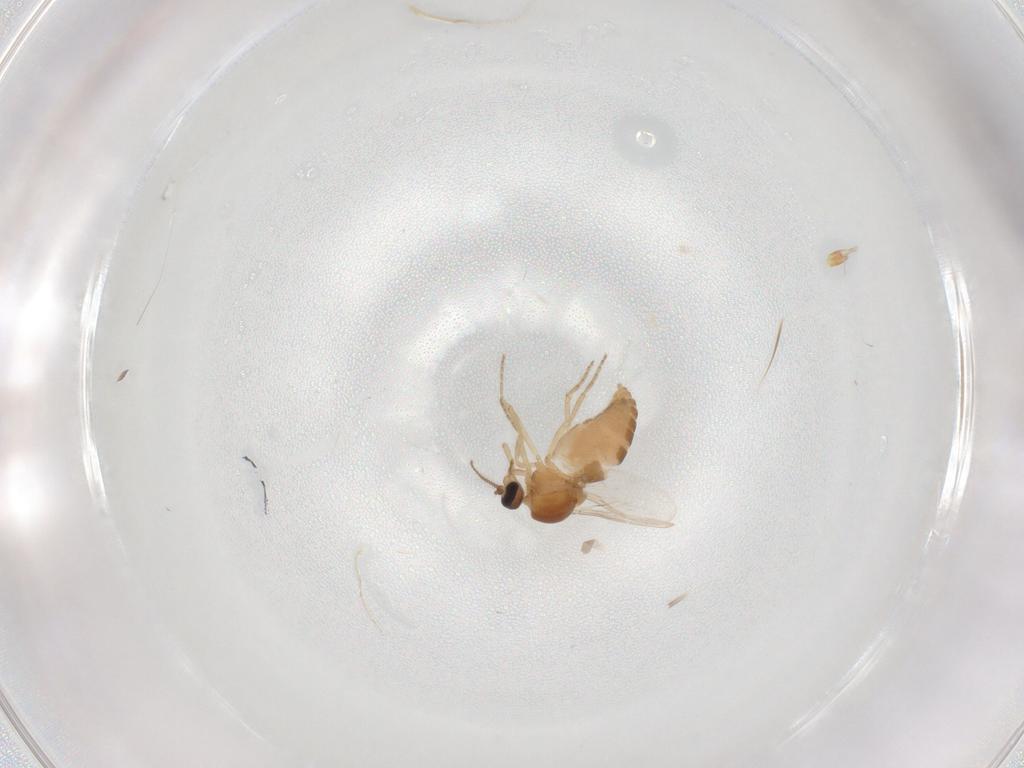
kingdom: Animalia
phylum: Arthropoda
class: Insecta
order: Diptera
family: Ceratopogonidae
